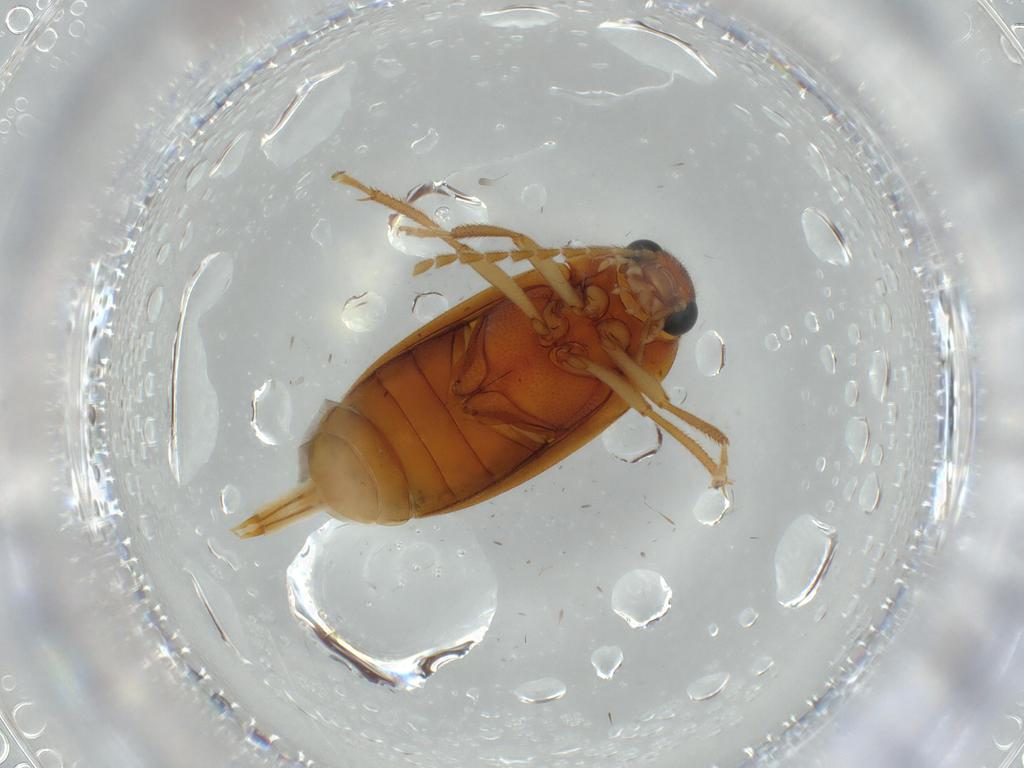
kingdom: Animalia
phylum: Arthropoda
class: Insecta
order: Coleoptera
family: Ptilodactylidae
